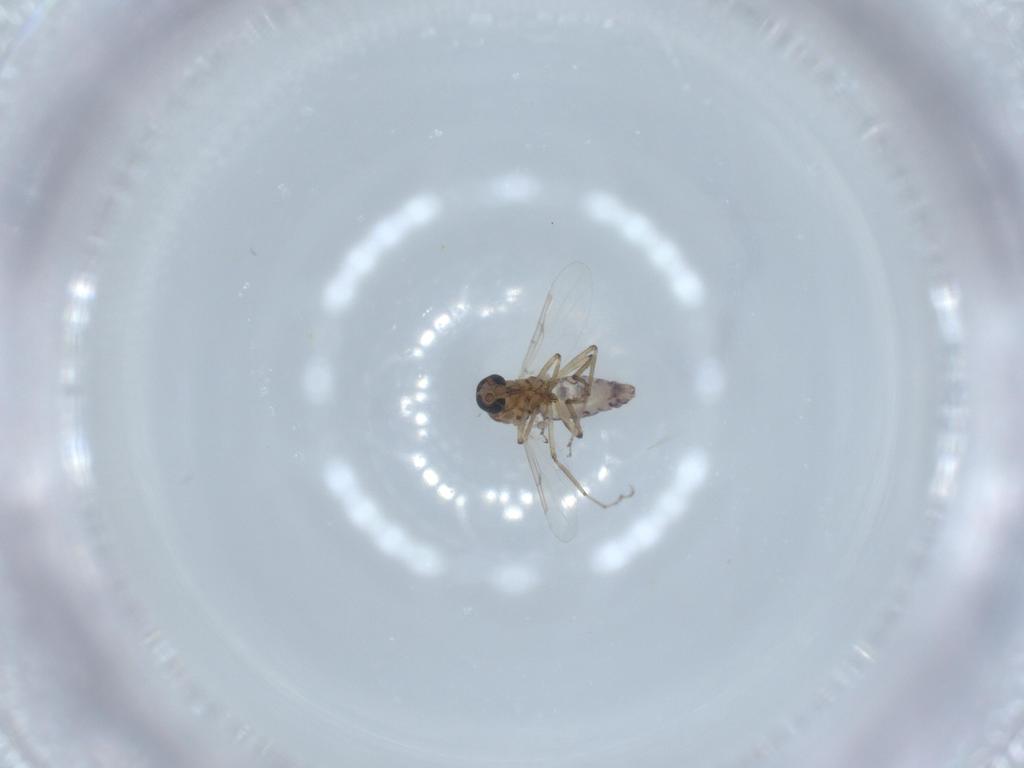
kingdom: Animalia
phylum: Arthropoda
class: Insecta
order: Diptera
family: Ceratopogonidae
